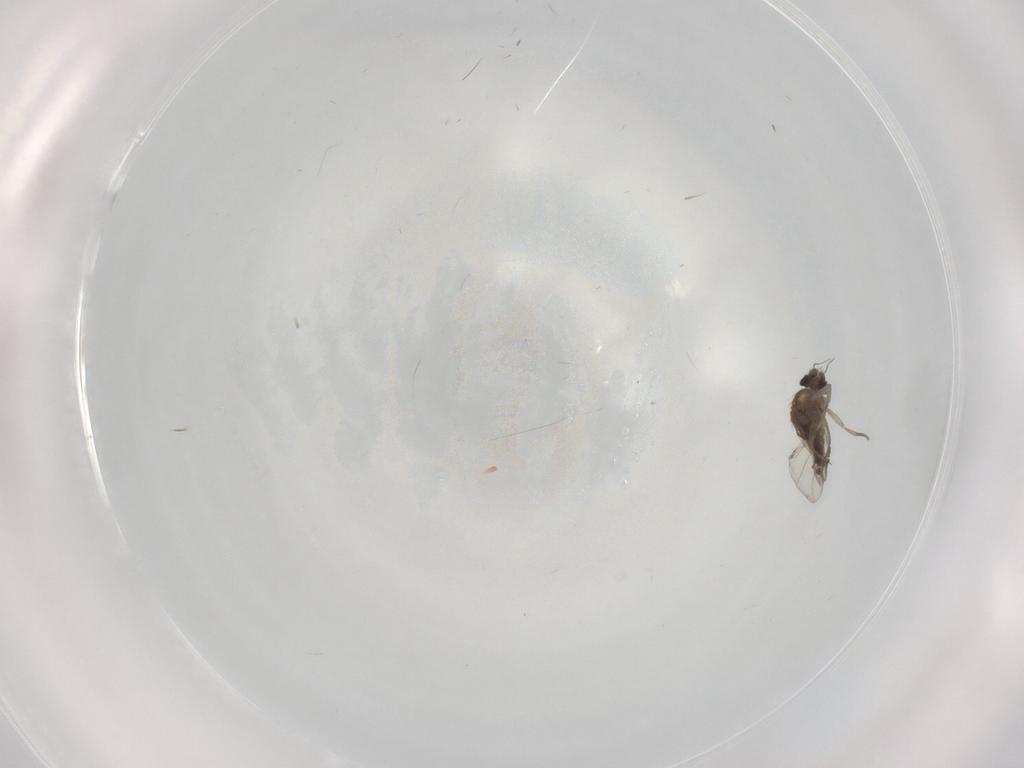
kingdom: Animalia
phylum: Arthropoda
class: Insecta
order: Diptera
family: Phoridae
